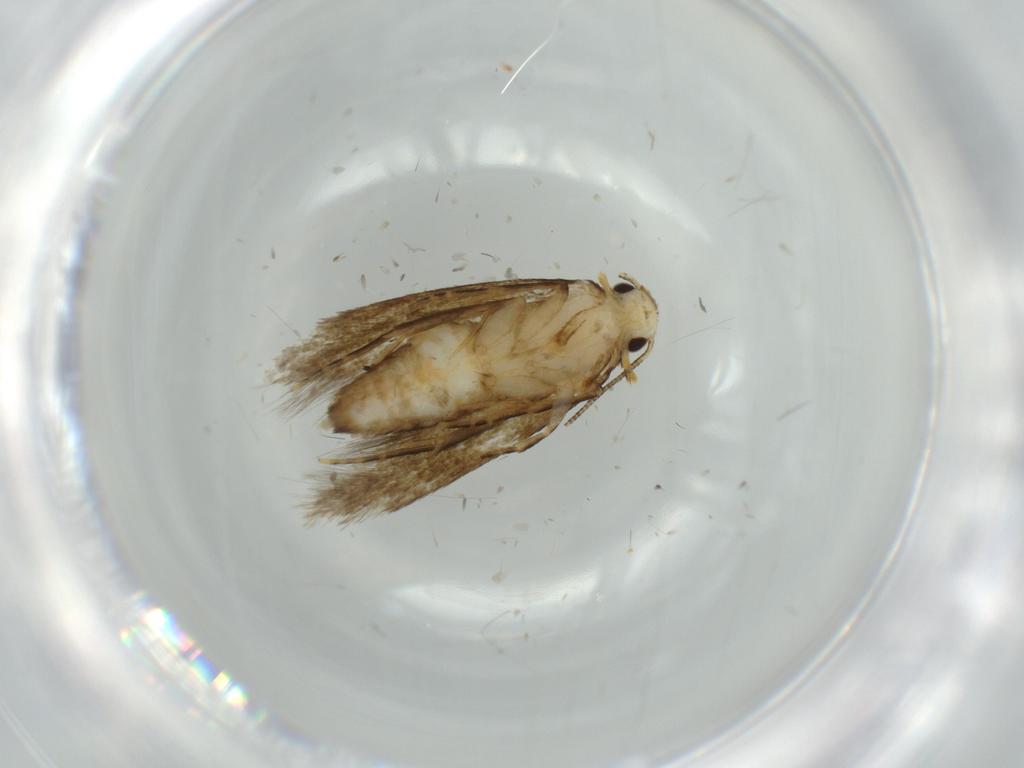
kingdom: Animalia
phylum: Arthropoda
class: Insecta
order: Lepidoptera
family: Tineidae
